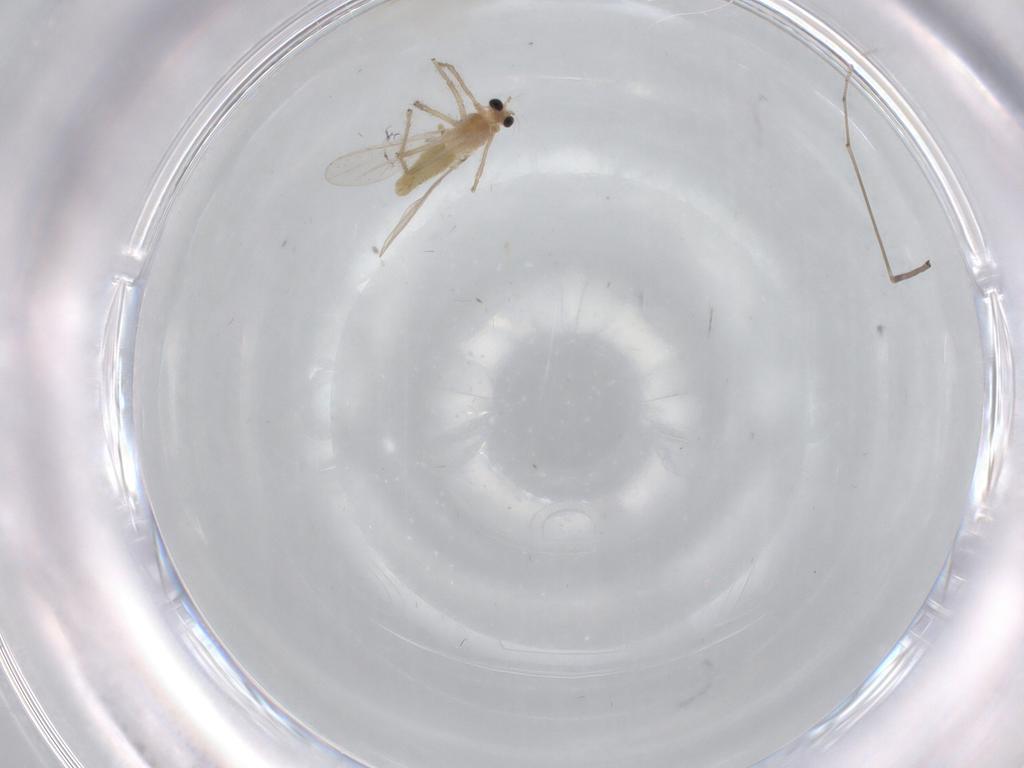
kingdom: Animalia
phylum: Arthropoda
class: Insecta
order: Diptera
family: Chironomidae
